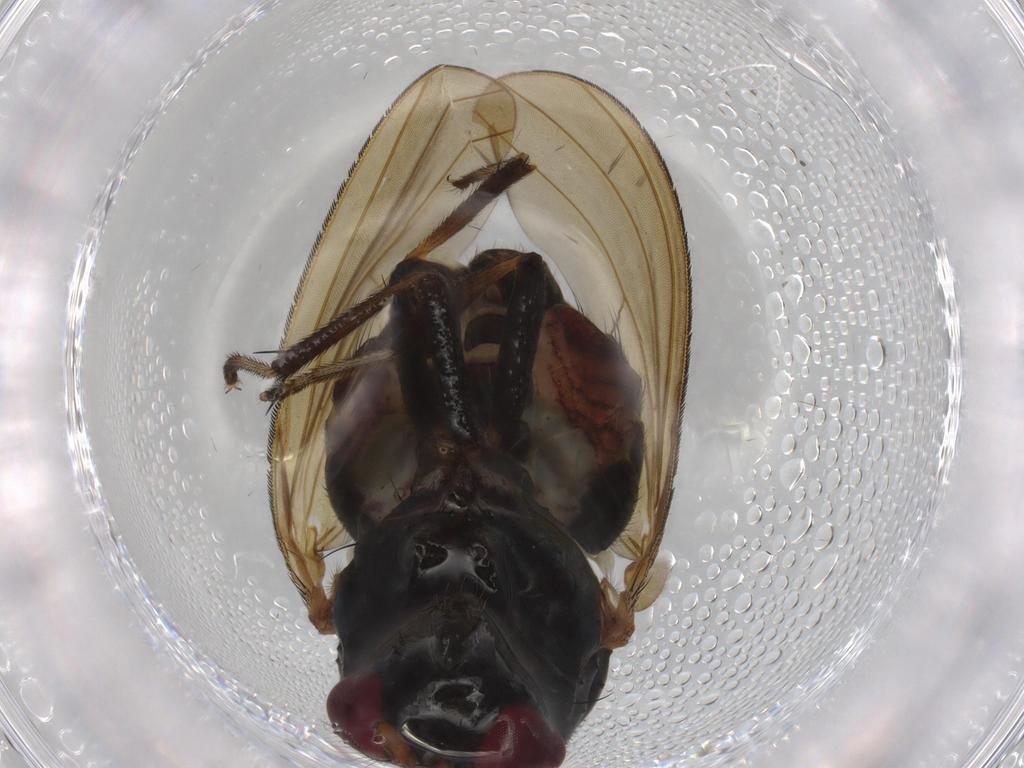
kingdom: Animalia
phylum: Arthropoda
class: Insecta
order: Diptera
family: Lauxaniidae
